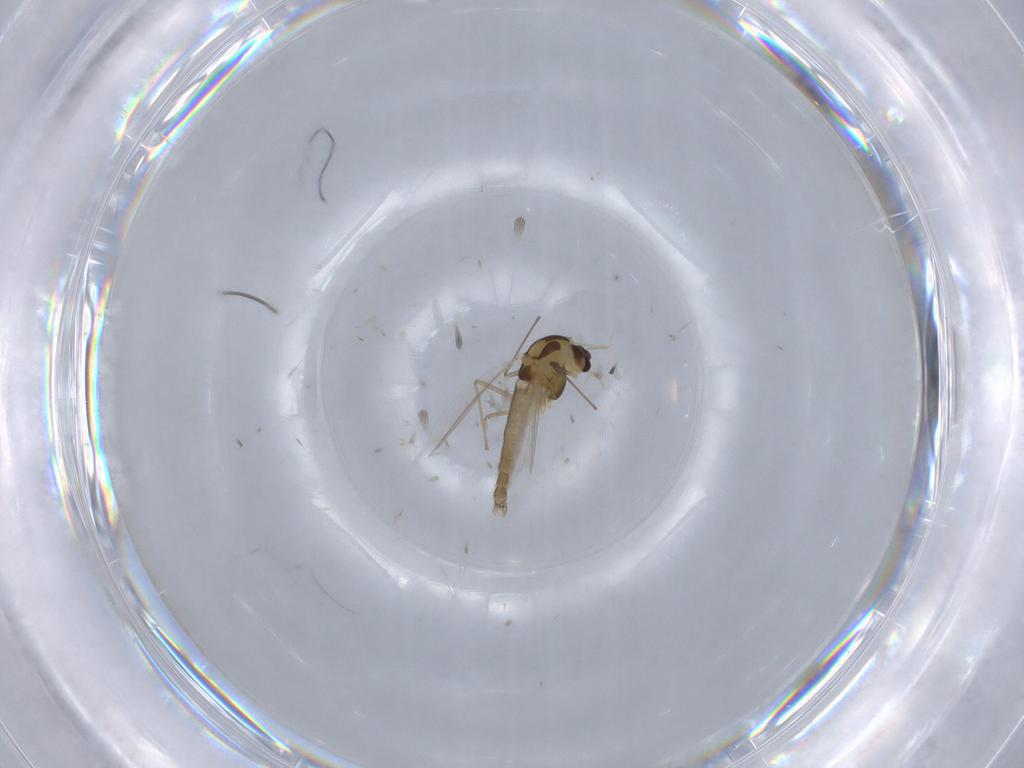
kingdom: Animalia
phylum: Arthropoda
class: Insecta
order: Diptera
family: Chironomidae
